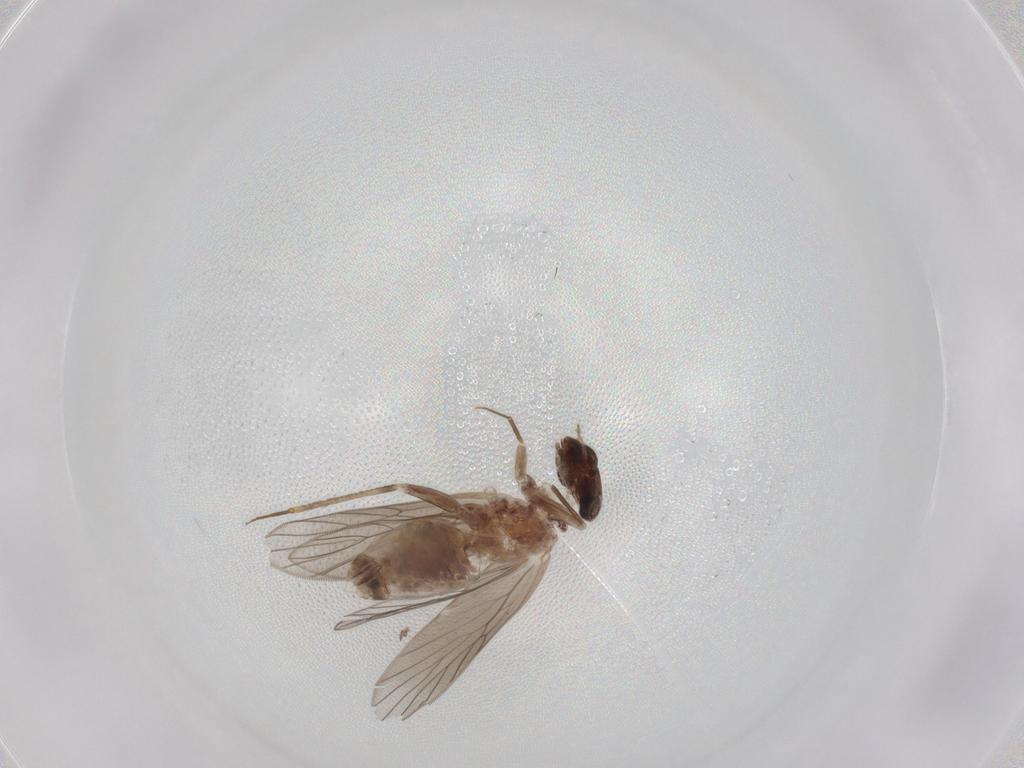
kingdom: Animalia
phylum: Arthropoda
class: Insecta
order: Psocodea
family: Lepidopsocidae
